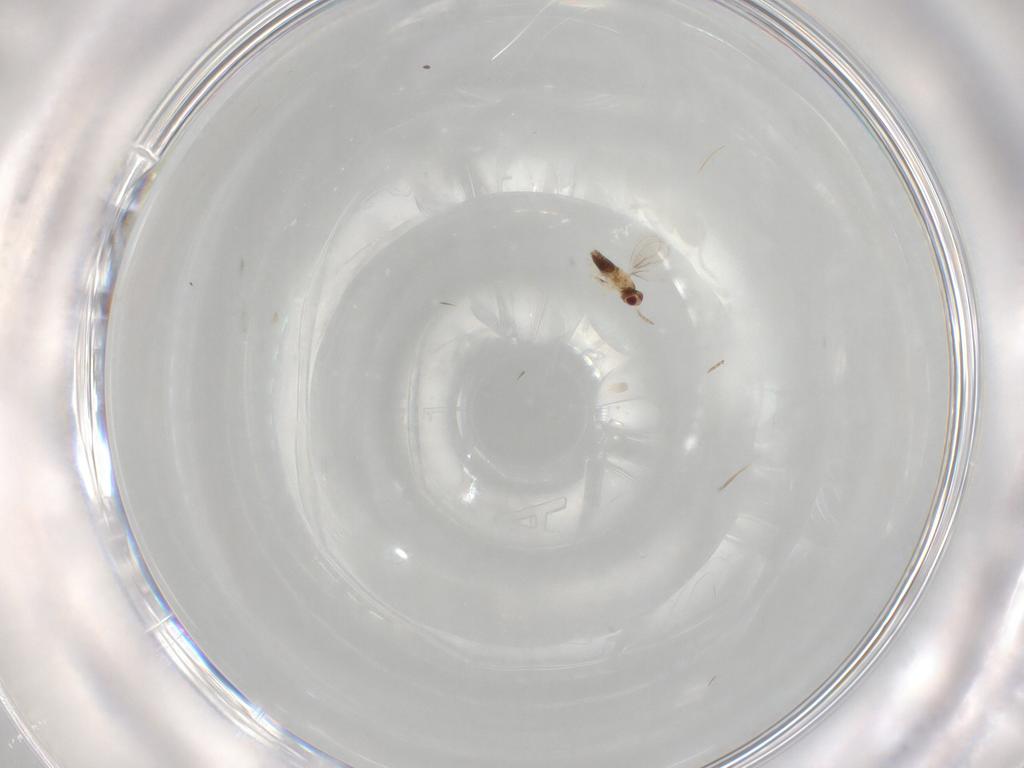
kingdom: Animalia
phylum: Arthropoda
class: Insecta
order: Hymenoptera
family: Aphelinidae
